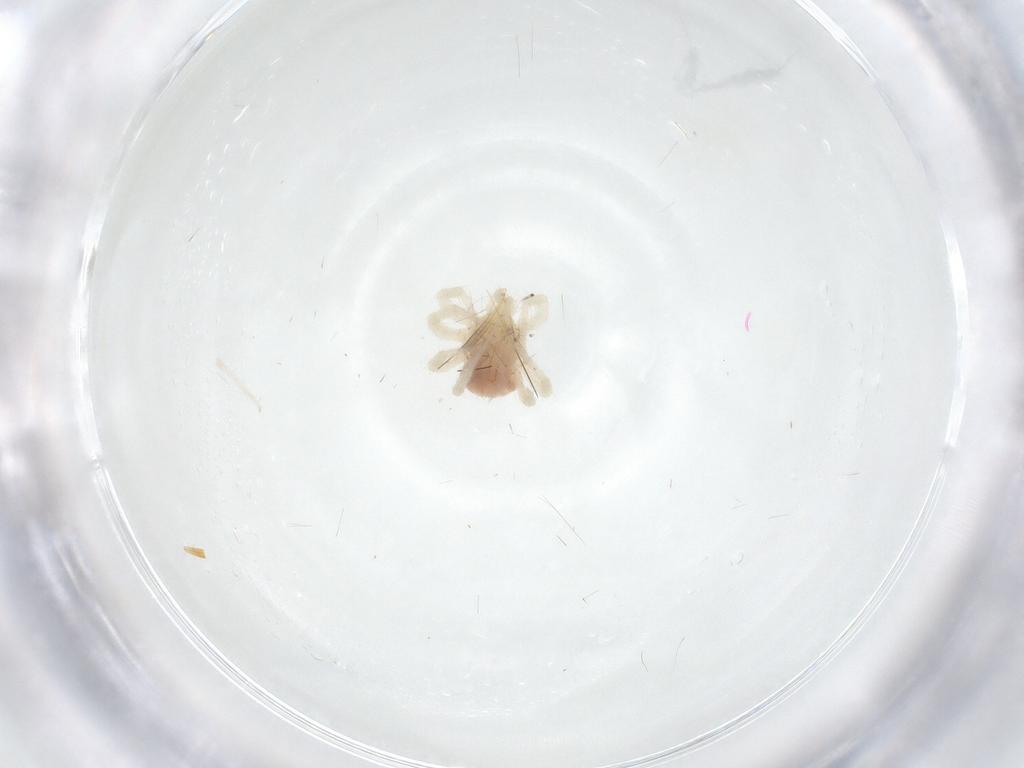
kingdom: Animalia
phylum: Arthropoda
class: Arachnida
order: Trombidiformes
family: Anystidae
